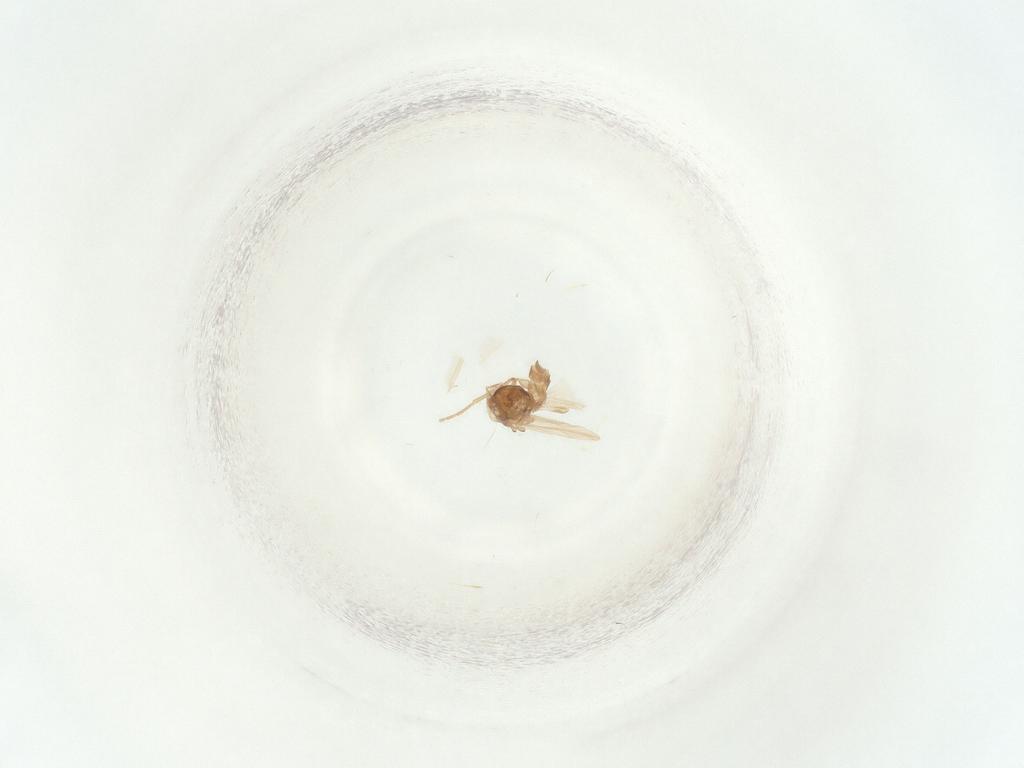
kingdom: Animalia
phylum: Arthropoda
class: Insecta
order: Diptera
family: Sciaridae
